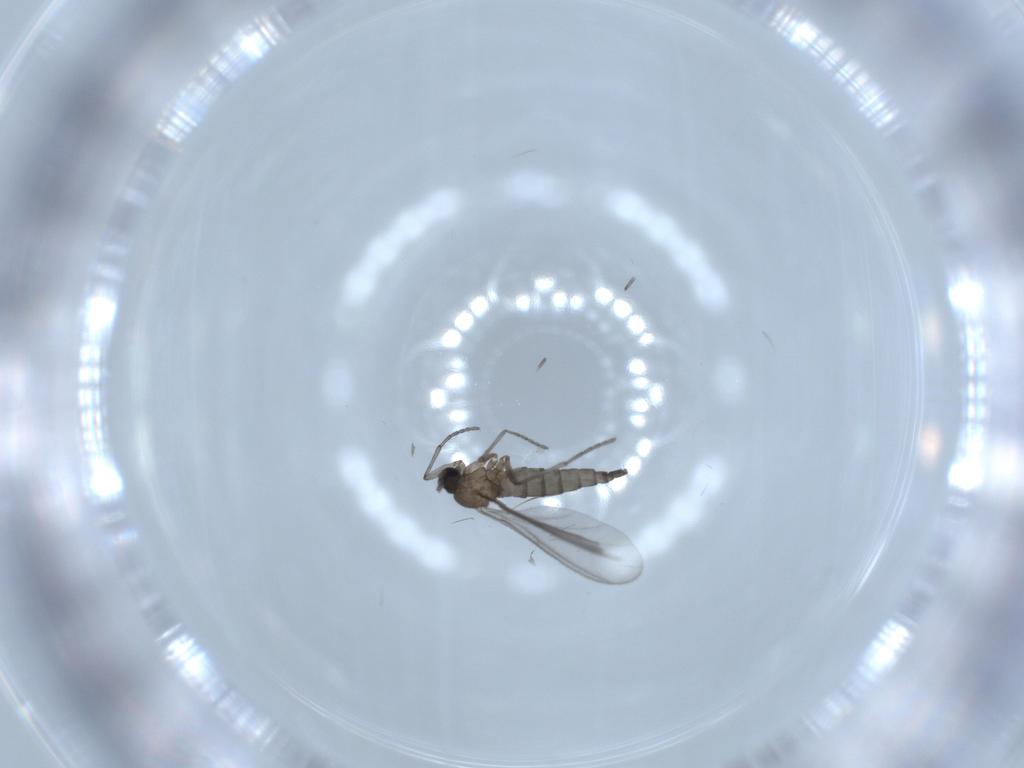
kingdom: Animalia
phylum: Arthropoda
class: Insecta
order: Diptera
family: Sciaridae
